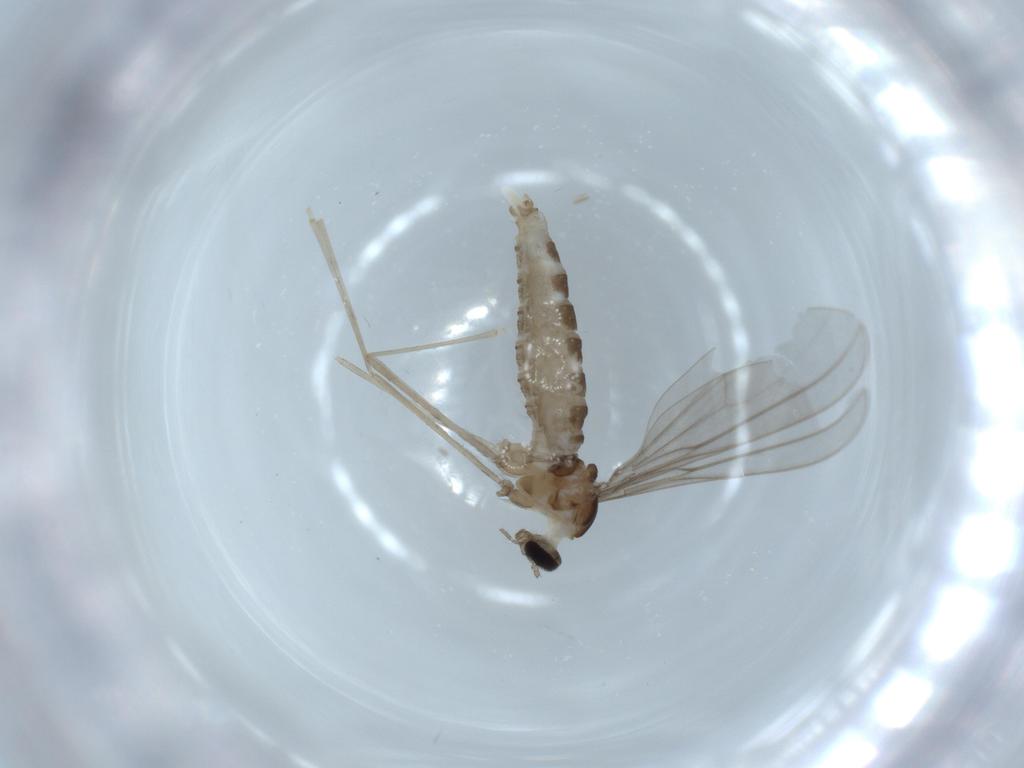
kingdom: Animalia
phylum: Arthropoda
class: Insecta
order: Diptera
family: Cecidomyiidae
